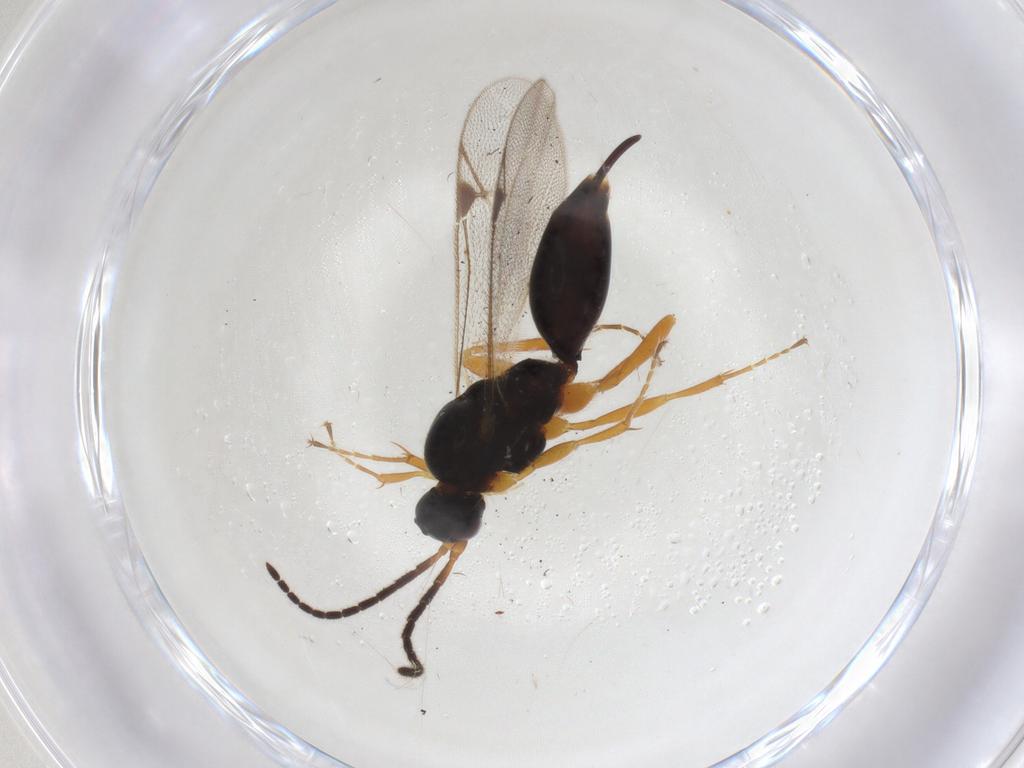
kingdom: Animalia
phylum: Arthropoda
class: Insecta
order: Hymenoptera
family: Proctotrupidae
